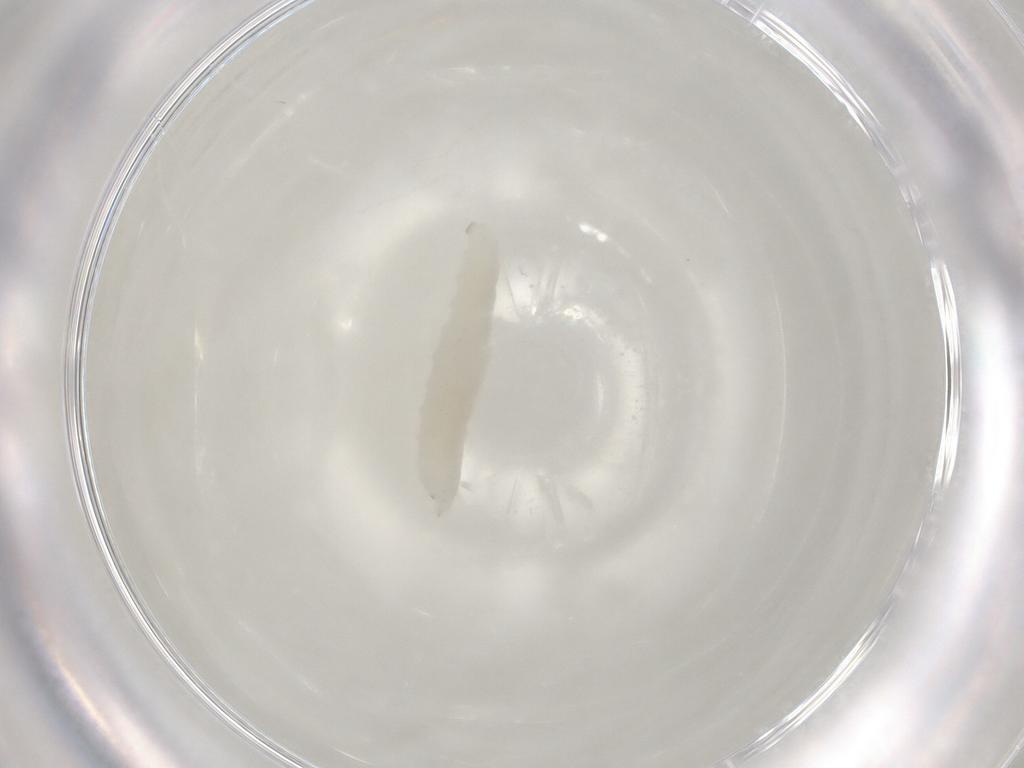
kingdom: Animalia
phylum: Arthropoda
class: Insecta
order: Diptera
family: Cecidomyiidae
